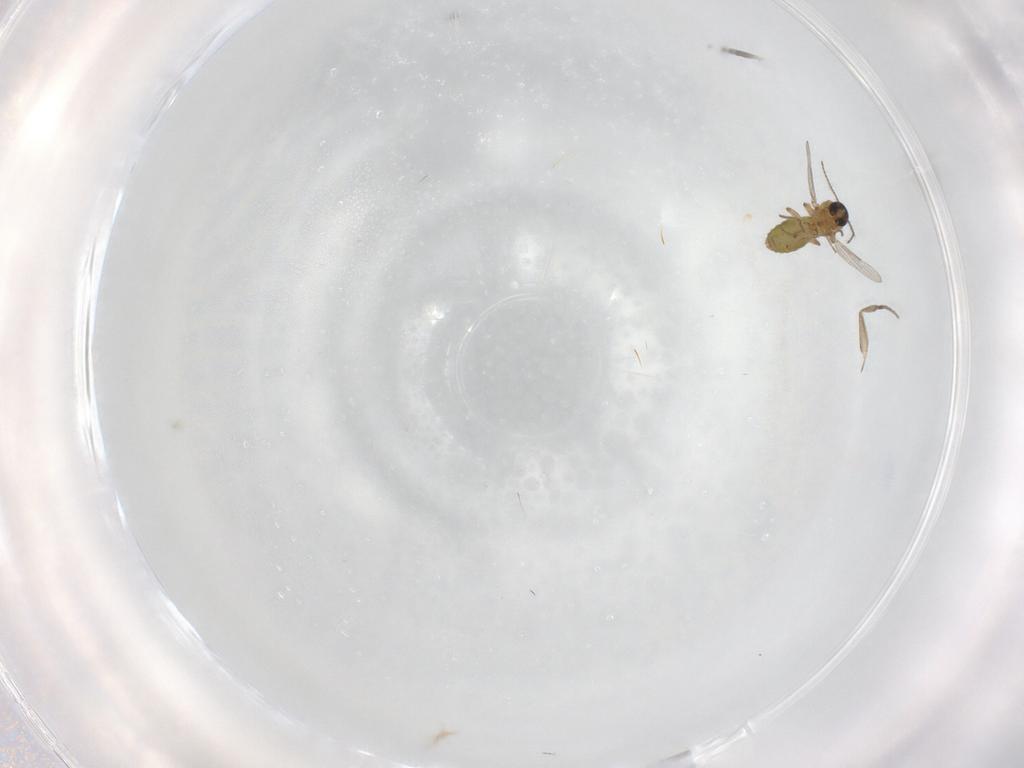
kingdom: Animalia
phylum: Arthropoda
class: Insecta
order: Diptera
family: Phoridae
